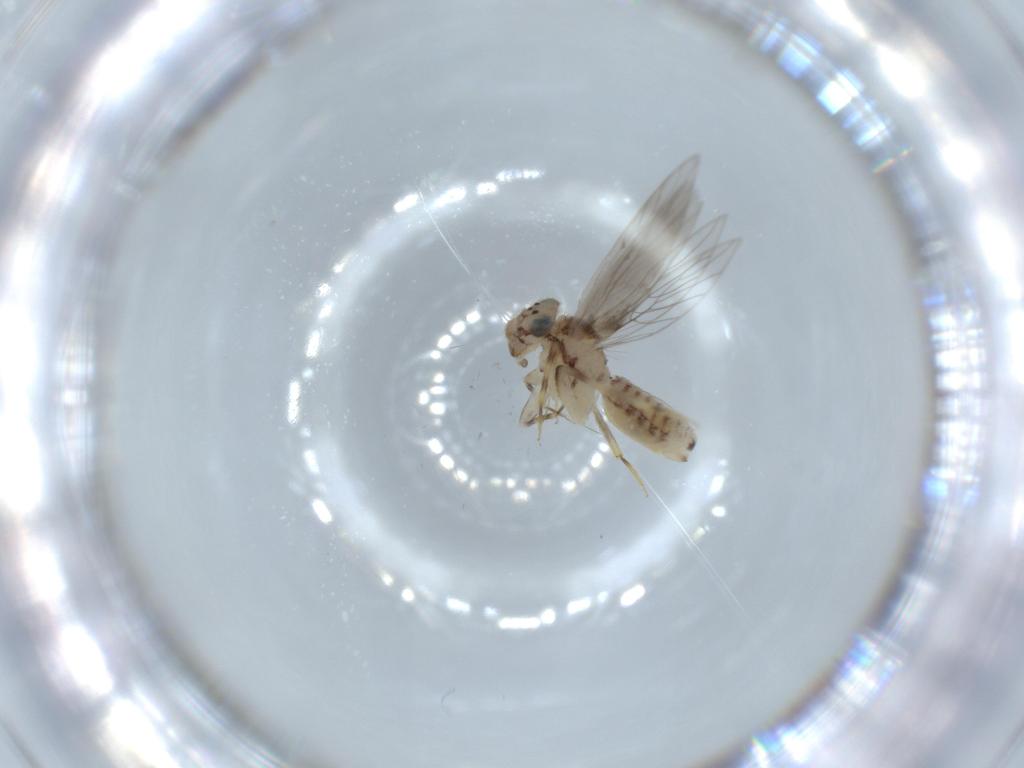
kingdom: Animalia
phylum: Arthropoda
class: Insecta
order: Psocodea
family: Lepidopsocidae
